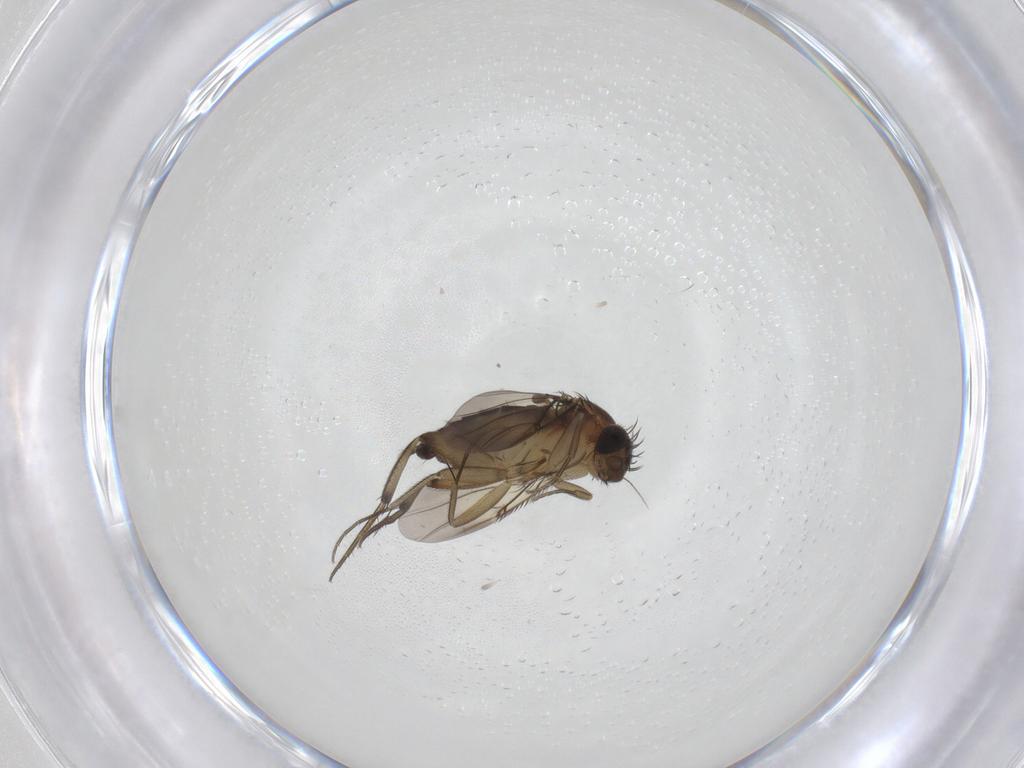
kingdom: Animalia
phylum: Arthropoda
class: Insecta
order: Diptera
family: Phoridae
